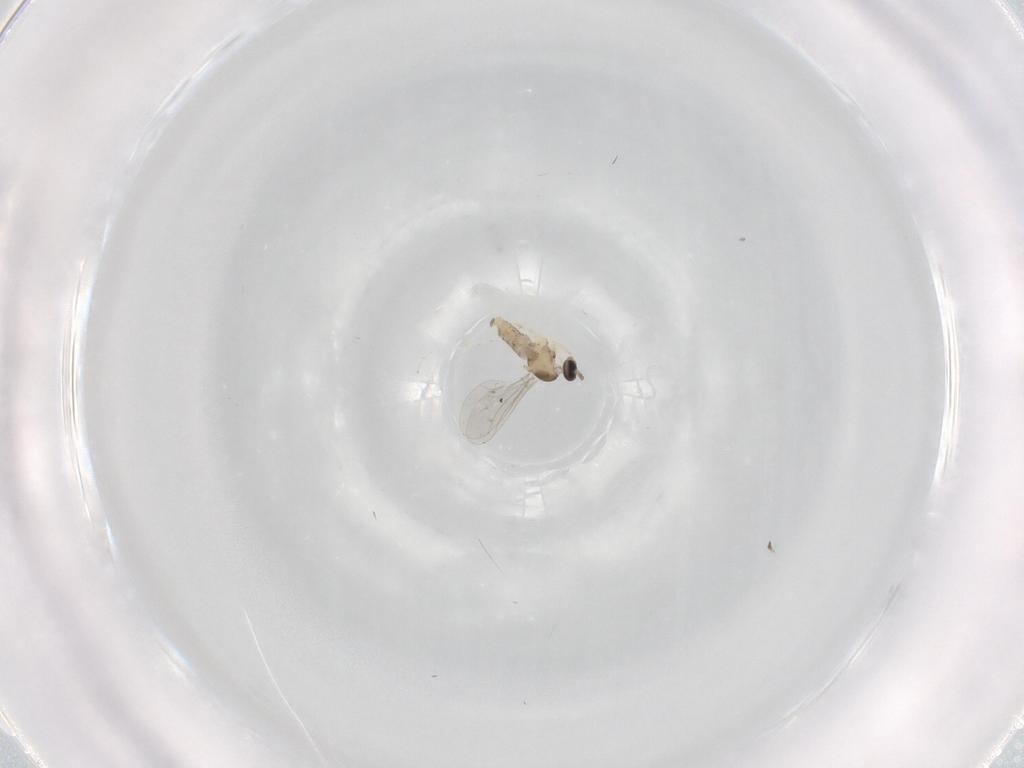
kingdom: Animalia
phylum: Arthropoda
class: Insecta
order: Diptera
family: Cecidomyiidae
